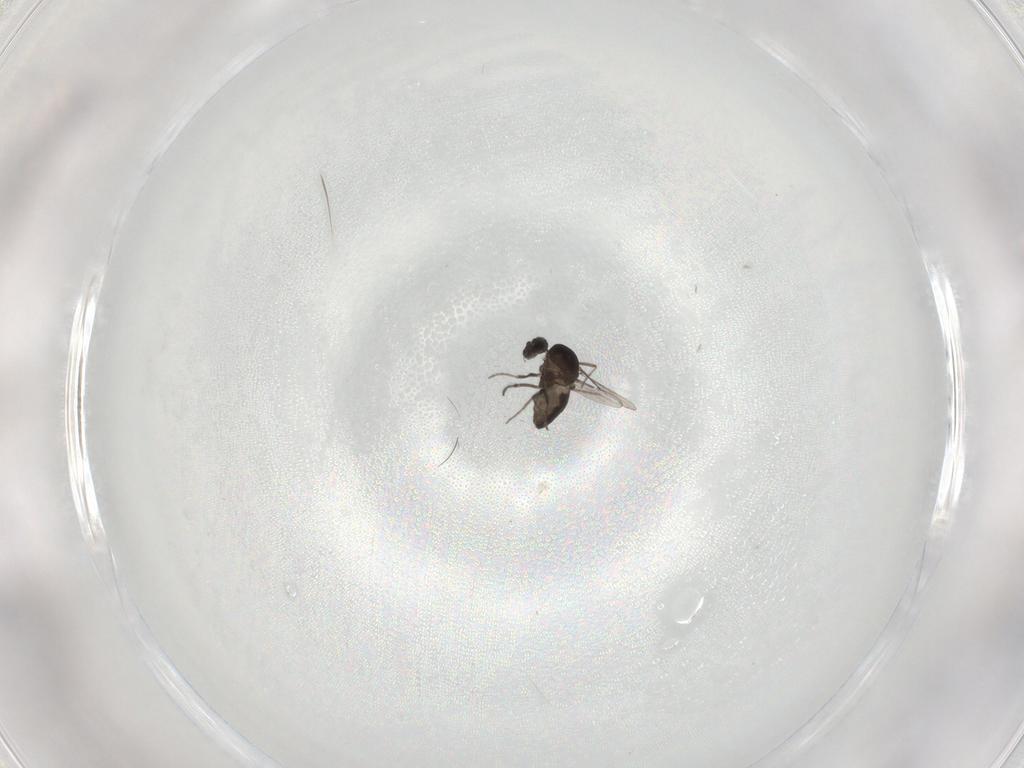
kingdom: Animalia
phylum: Arthropoda
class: Insecta
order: Diptera
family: Ceratopogonidae
